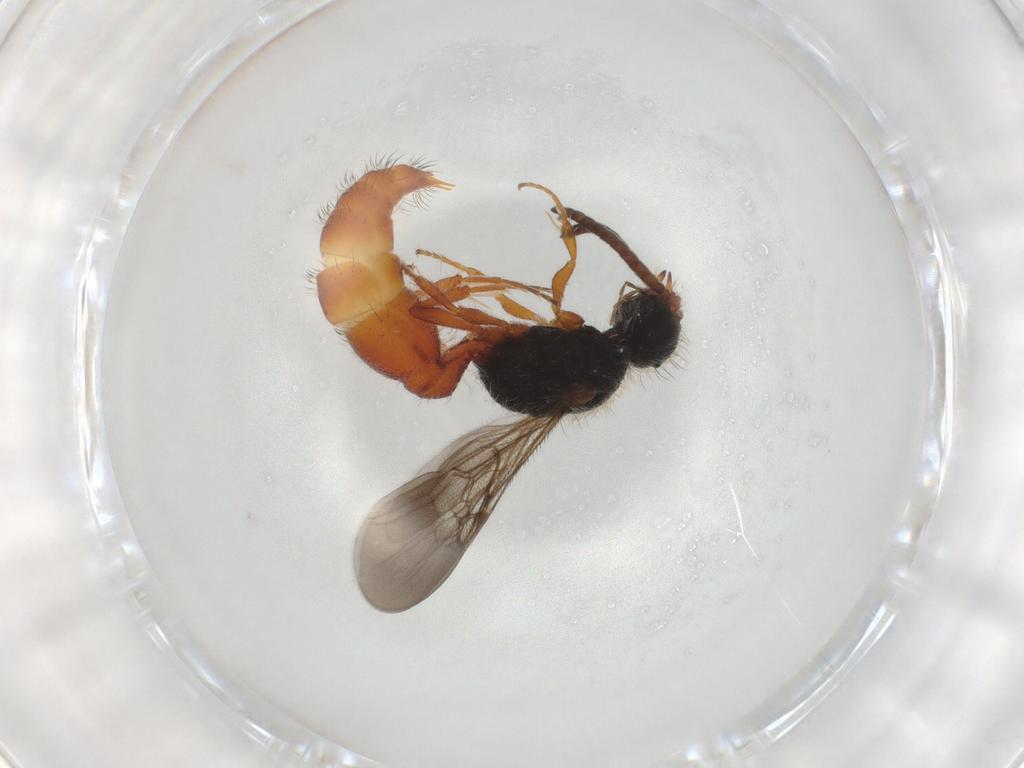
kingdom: Animalia
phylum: Arthropoda
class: Insecta
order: Hymenoptera
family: Mutillidae
